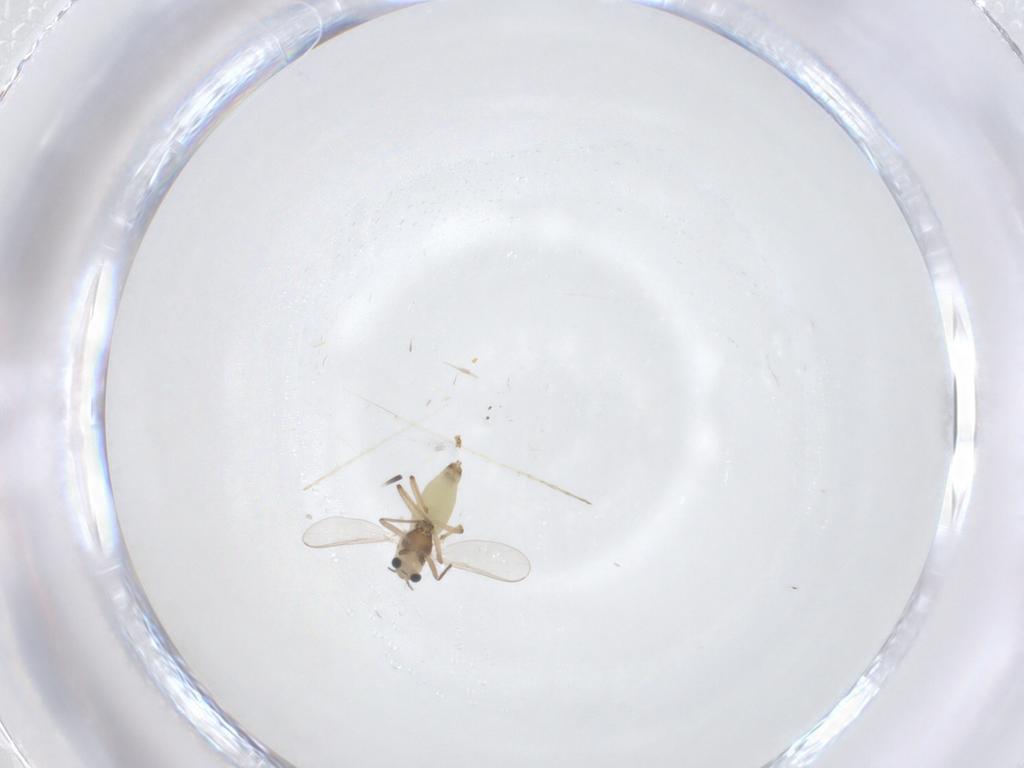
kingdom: Animalia
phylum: Arthropoda
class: Insecta
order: Diptera
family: Chironomidae
